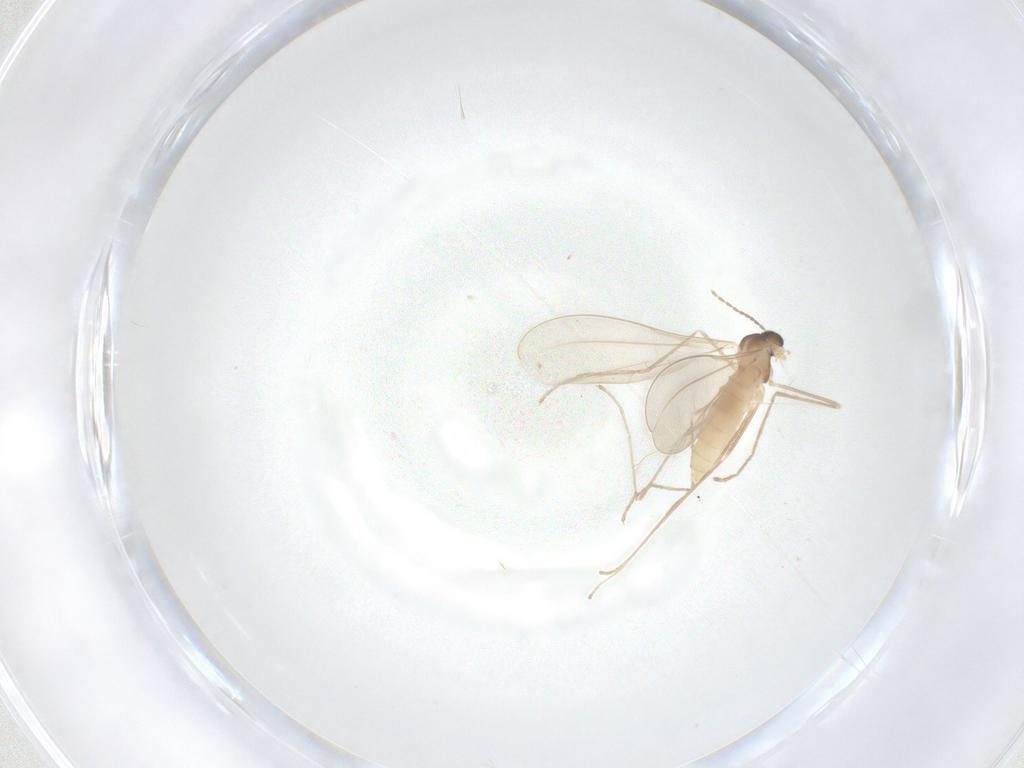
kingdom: Animalia
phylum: Arthropoda
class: Insecta
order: Diptera
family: Cecidomyiidae
